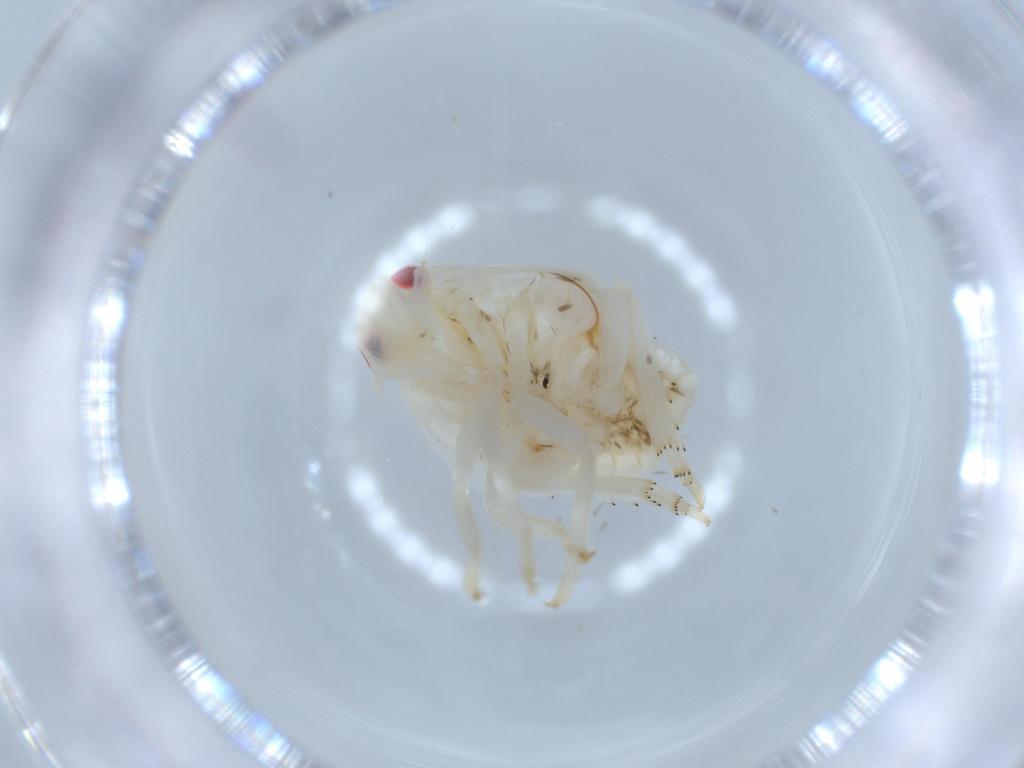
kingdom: Animalia
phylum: Arthropoda
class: Insecta
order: Hemiptera
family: Flatidae
